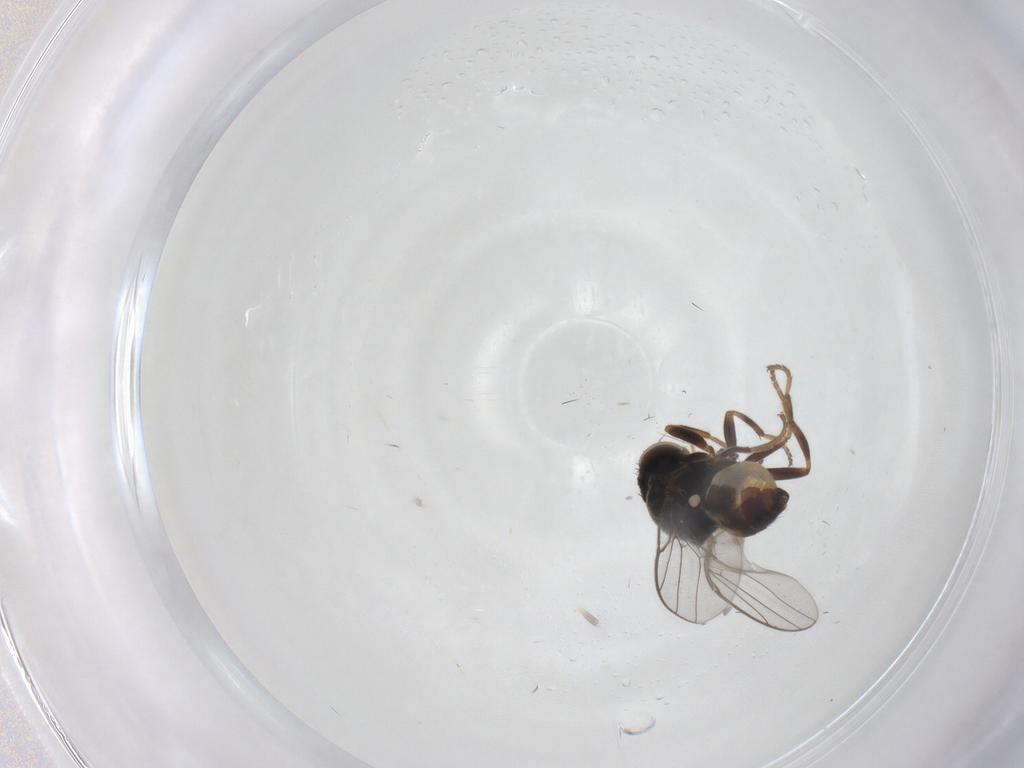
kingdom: Animalia
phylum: Arthropoda
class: Insecta
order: Diptera
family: Chloropidae
